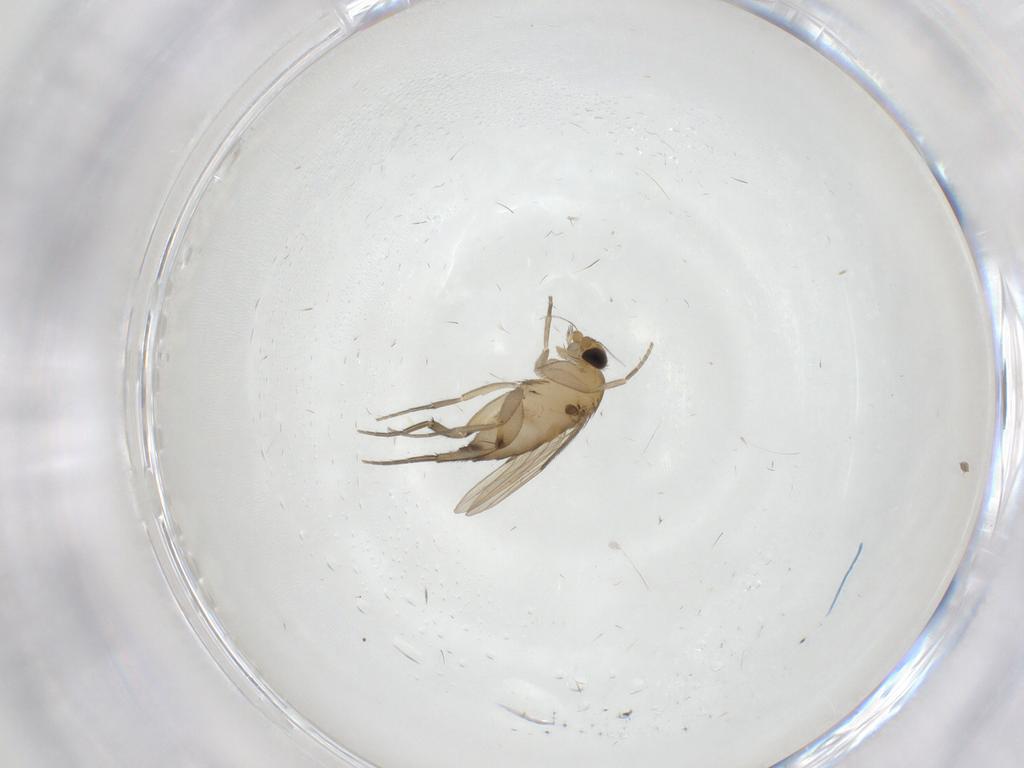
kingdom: Animalia
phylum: Arthropoda
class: Insecta
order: Diptera
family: Phoridae
